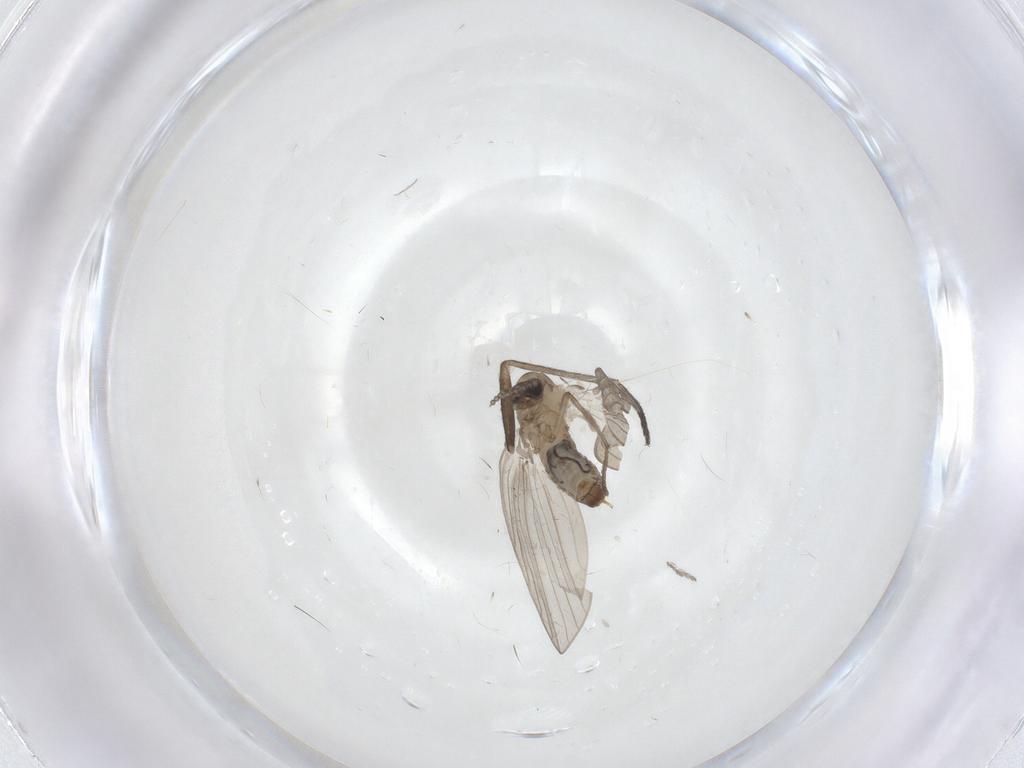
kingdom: Animalia
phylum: Arthropoda
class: Insecta
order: Diptera
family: Psychodidae
